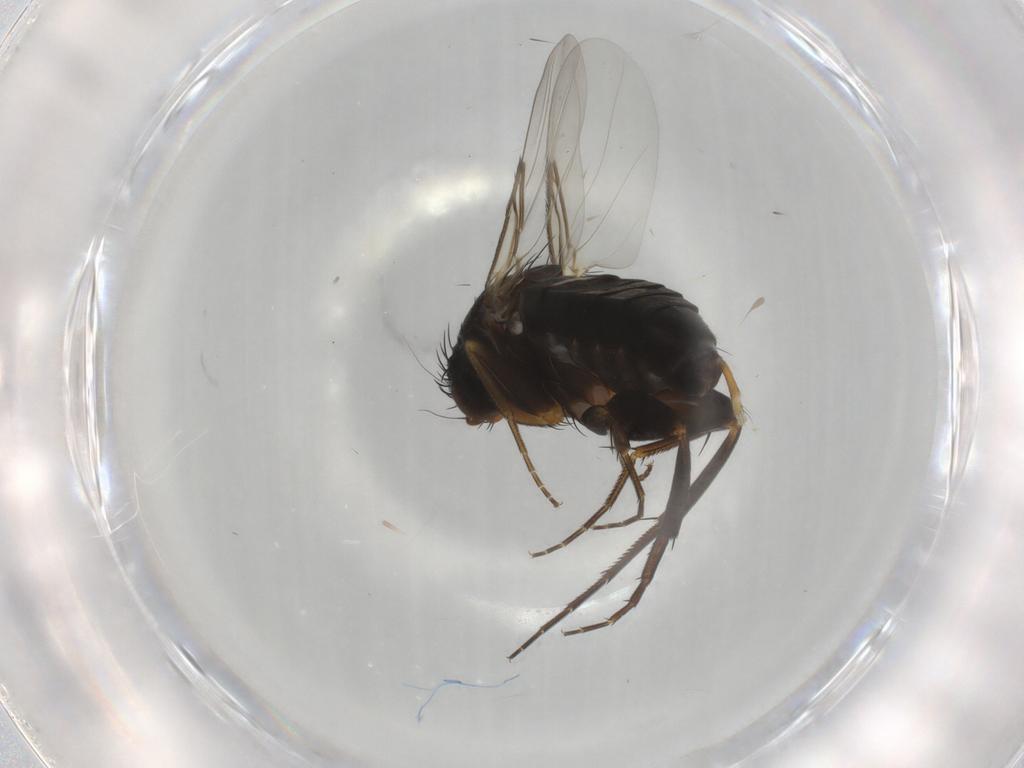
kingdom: Animalia
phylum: Arthropoda
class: Insecta
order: Diptera
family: Phoridae
